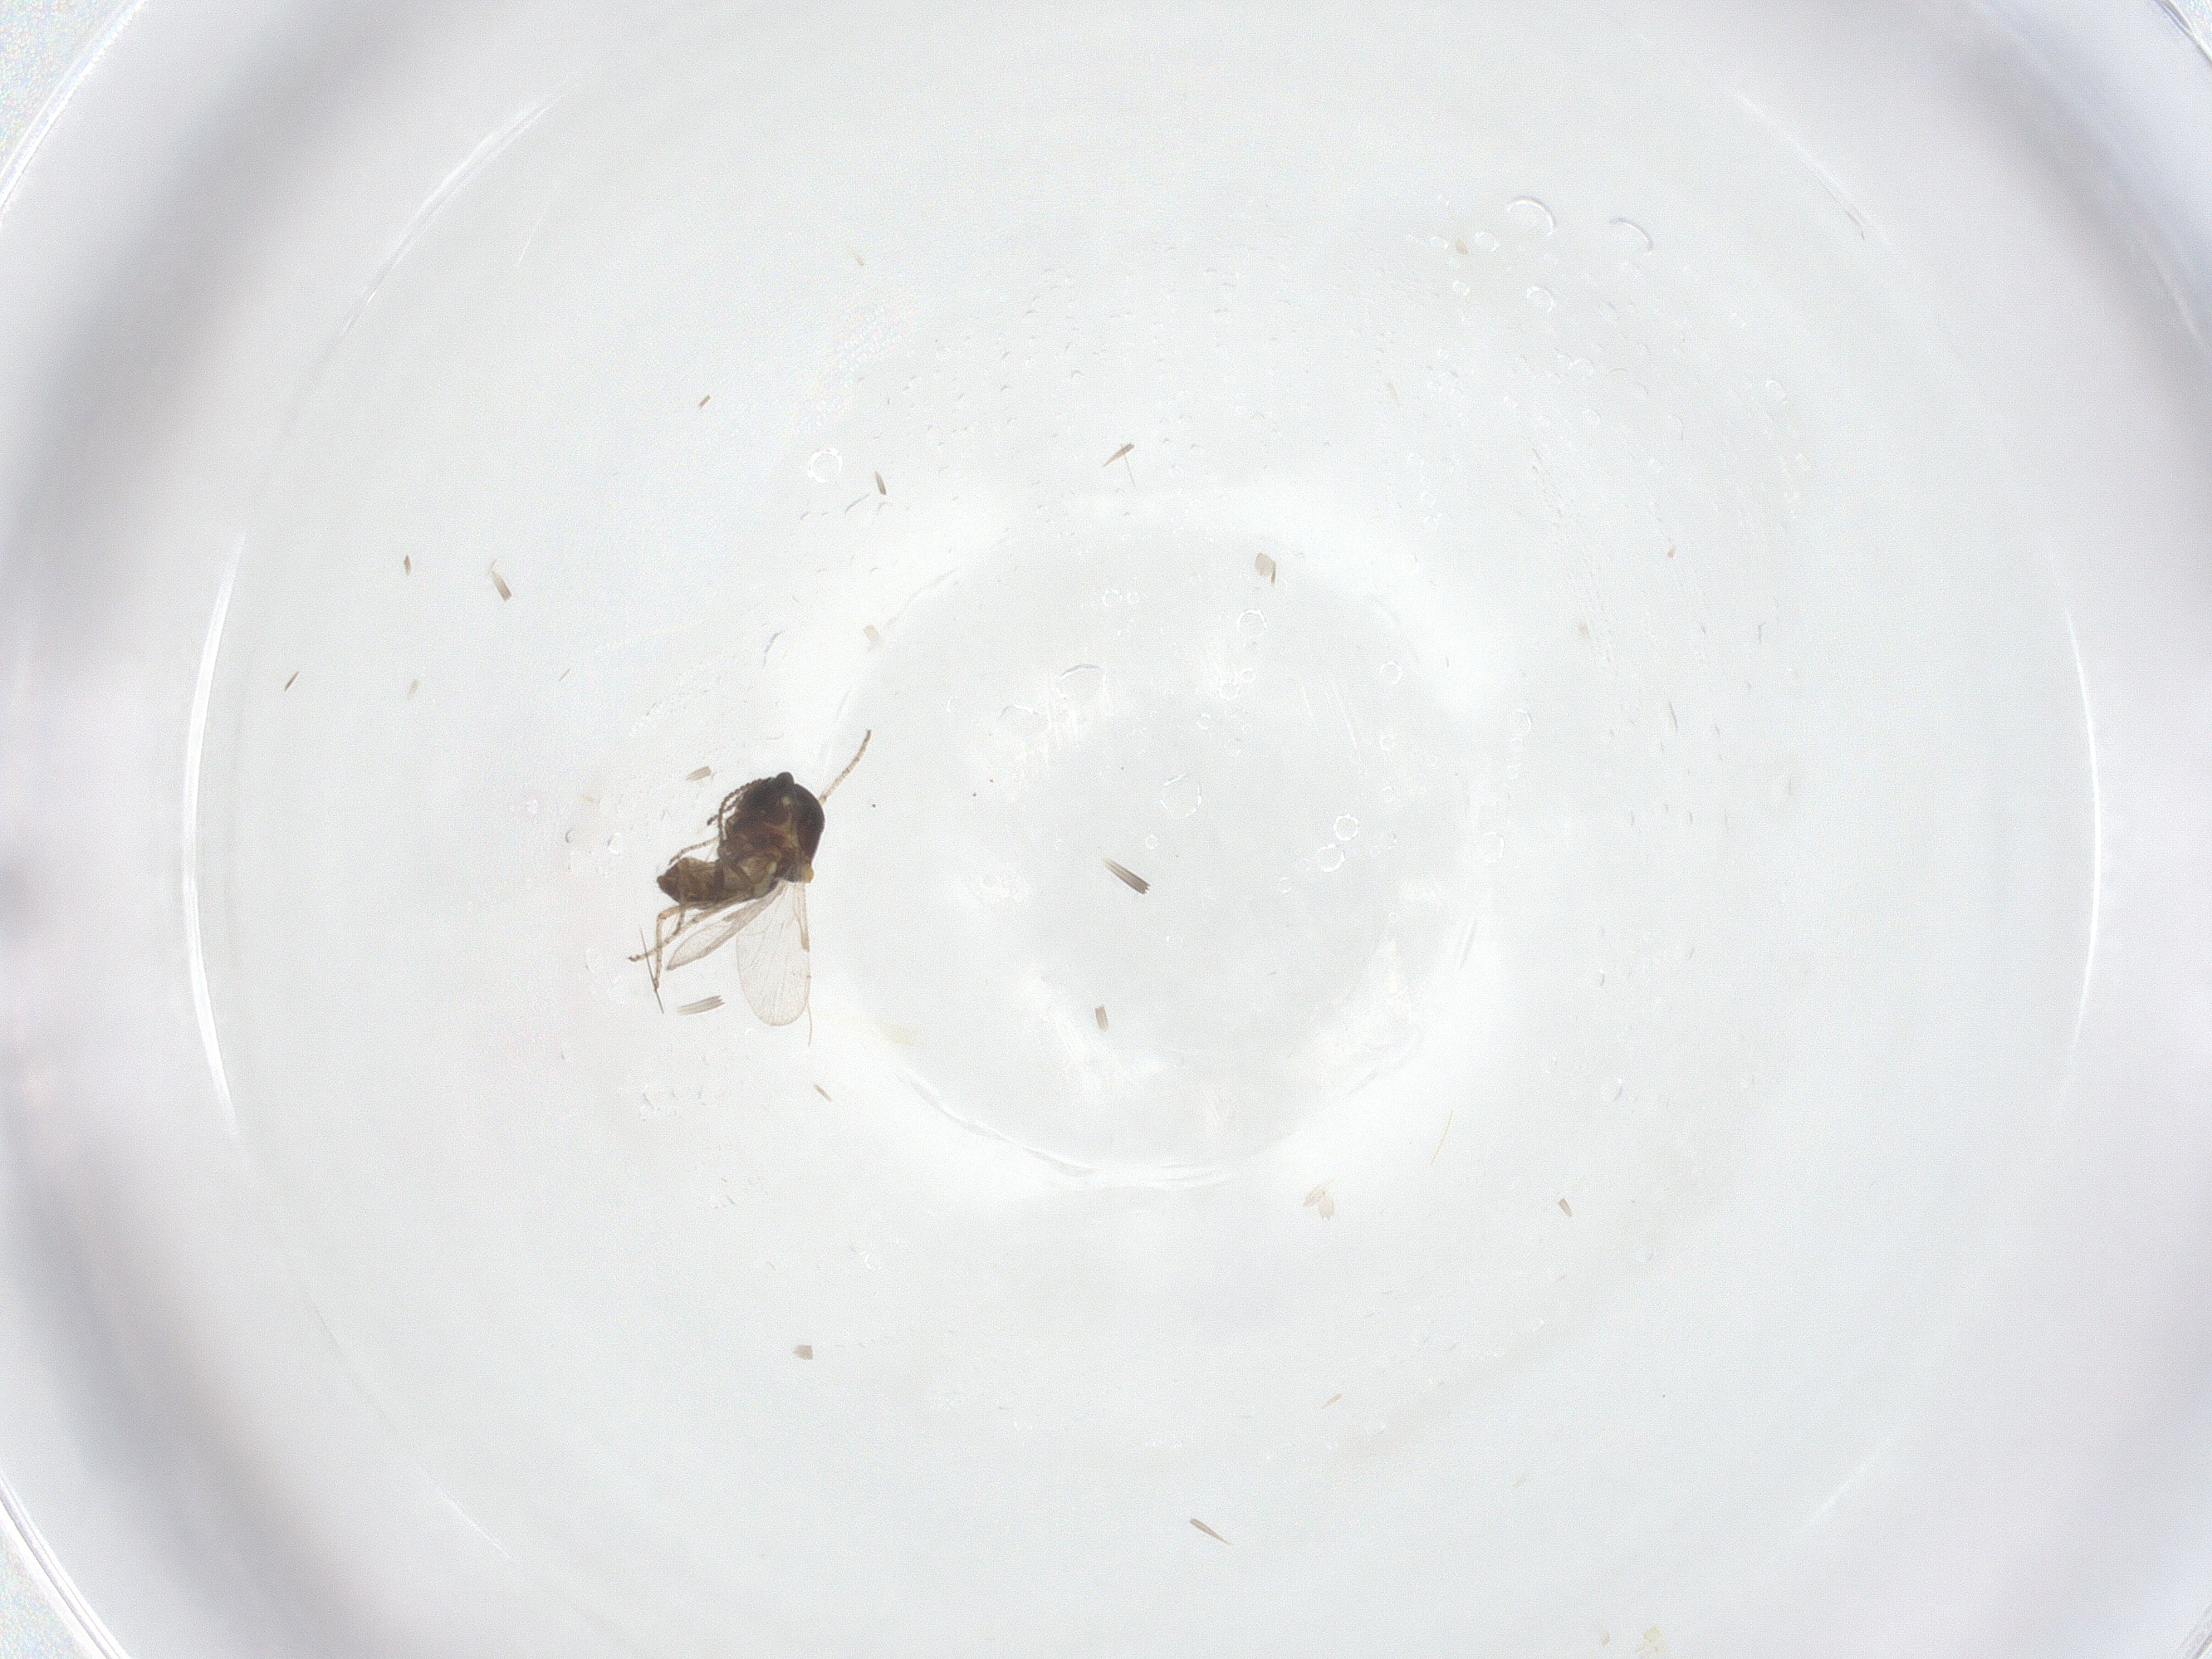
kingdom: Animalia
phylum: Arthropoda
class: Insecta
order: Diptera
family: Ceratopogonidae
